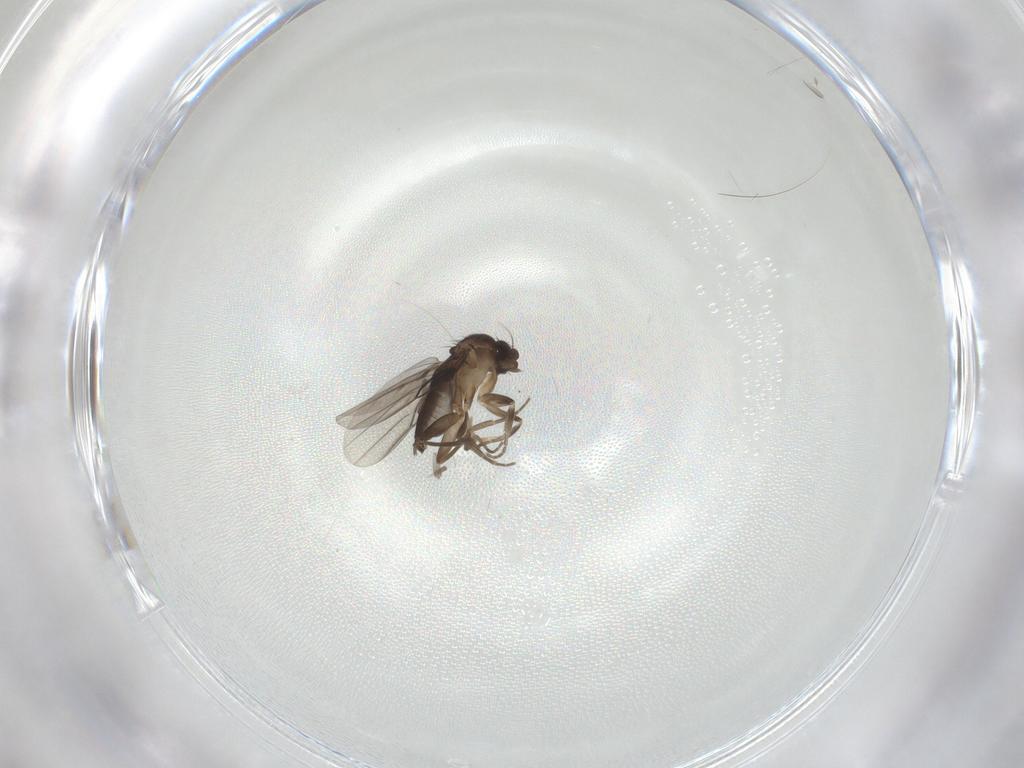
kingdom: Animalia
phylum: Arthropoda
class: Insecta
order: Diptera
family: Phoridae
